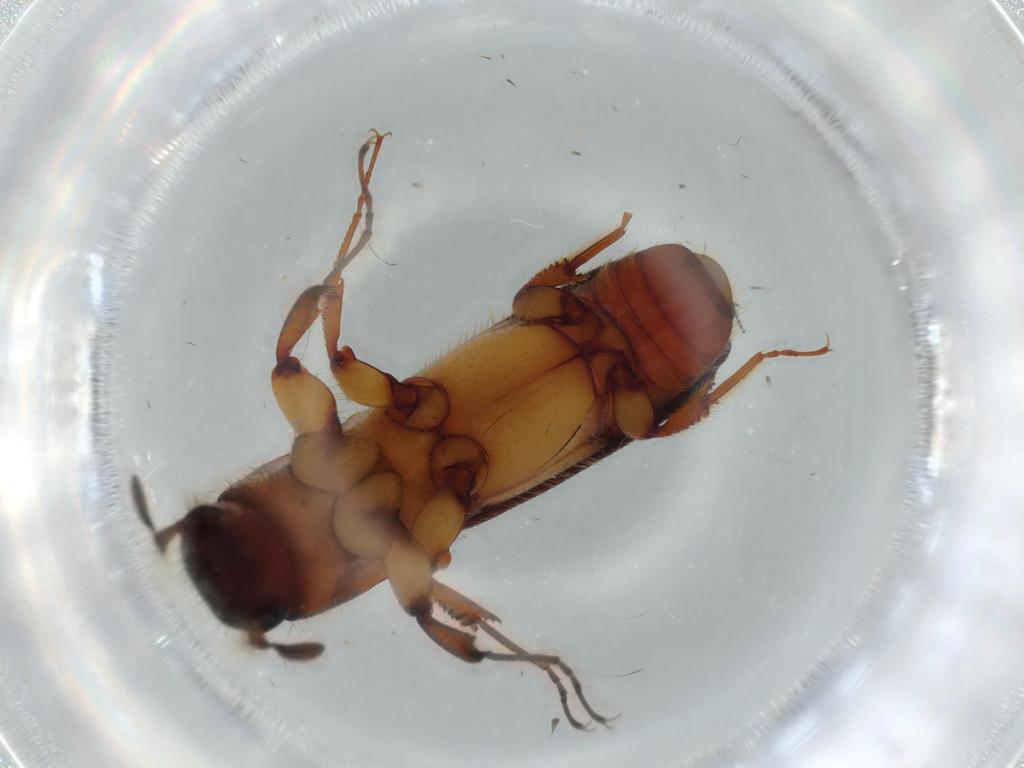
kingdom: Animalia
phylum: Arthropoda
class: Insecta
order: Coleoptera
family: Curculionidae
